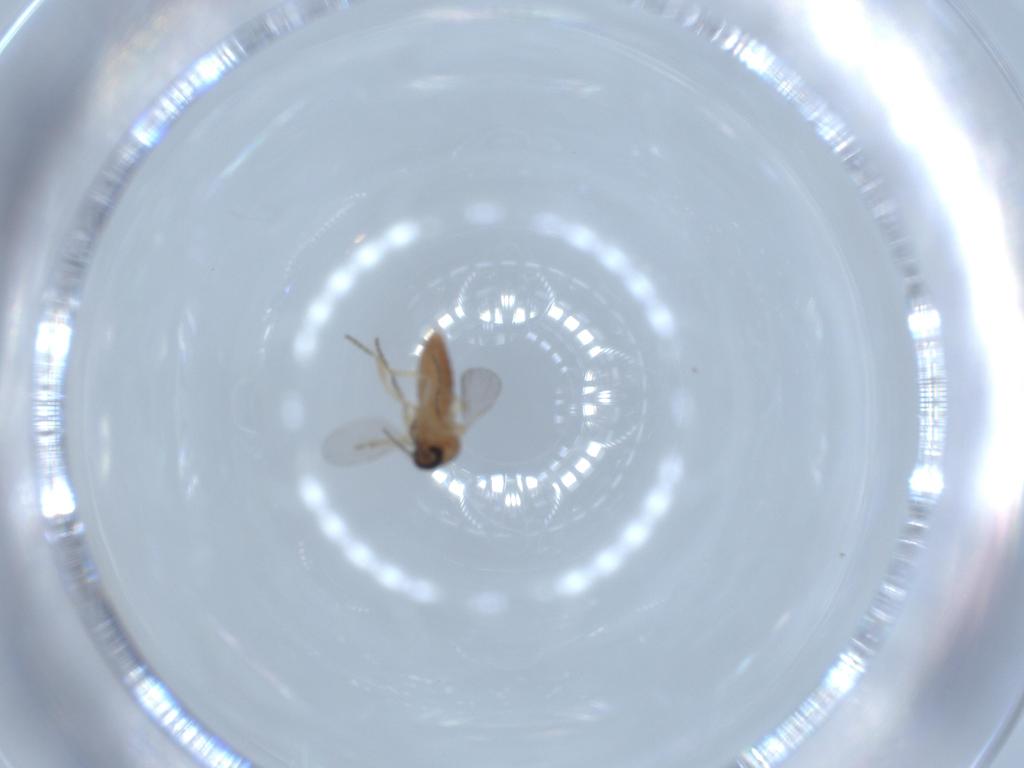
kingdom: Animalia
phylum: Arthropoda
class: Insecta
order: Diptera
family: Ceratopogonidae
